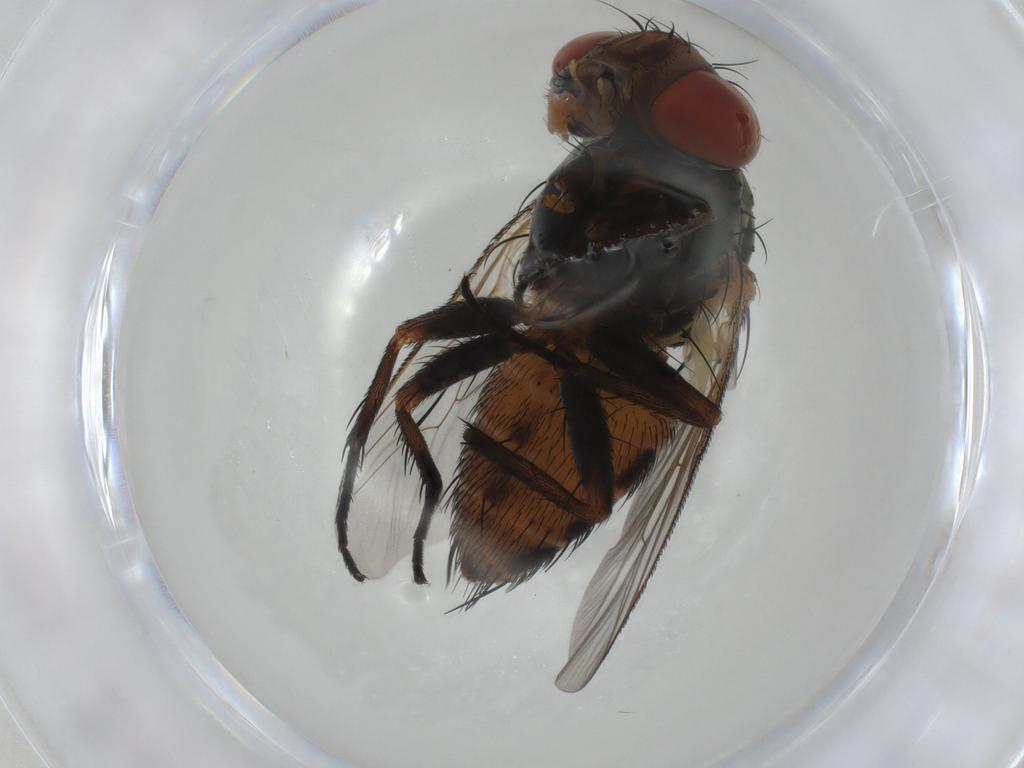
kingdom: Animalia
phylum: Arthropoda
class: Insecta
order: Diptera
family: Sarcophagidae
